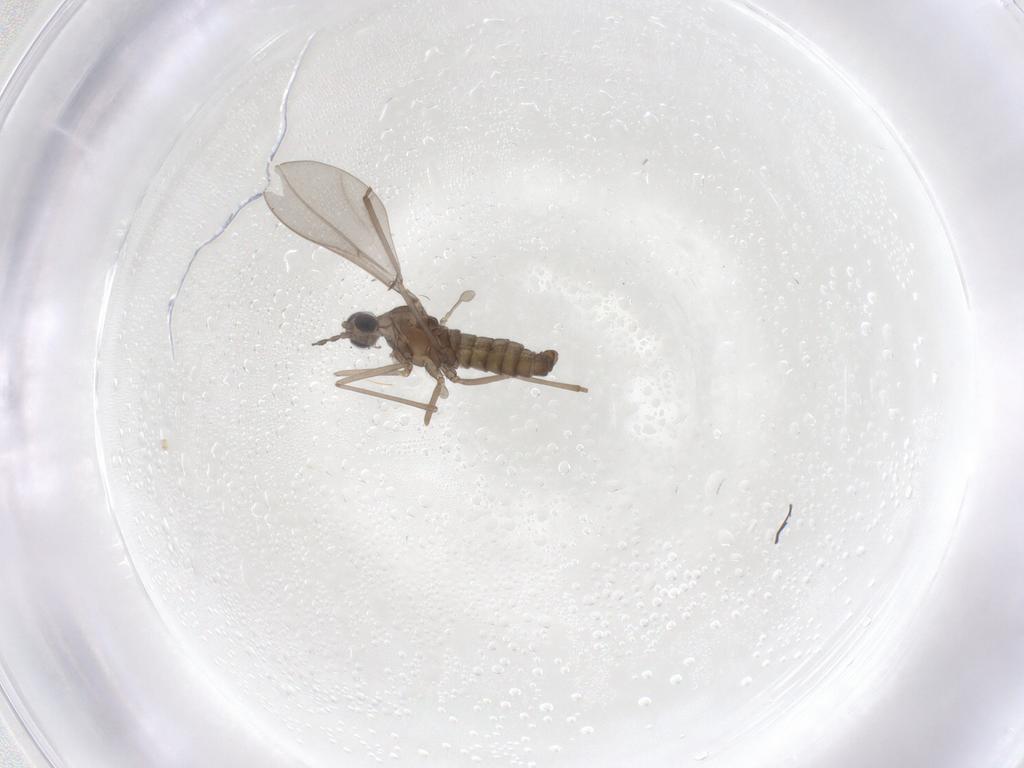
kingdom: Animalia
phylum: Arthropoda
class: Insecta
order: Diptera
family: Cecidomyiidae
